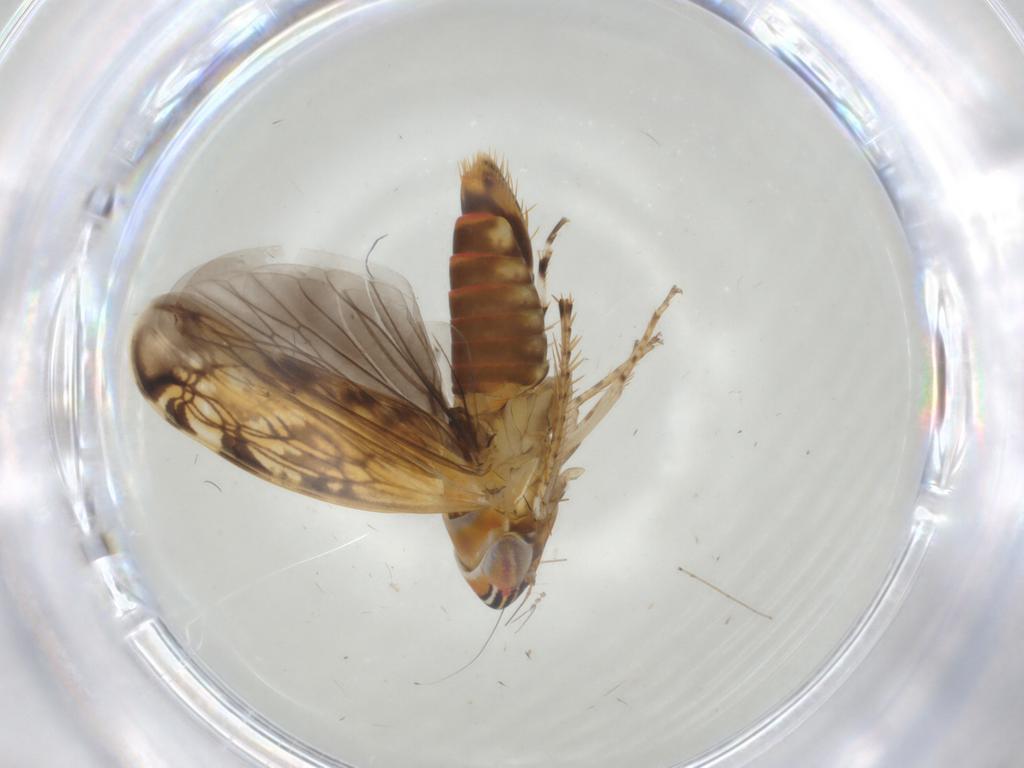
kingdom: Animalia
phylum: Arthropoda
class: Insecta
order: Hemiptera
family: Cicadellidae
